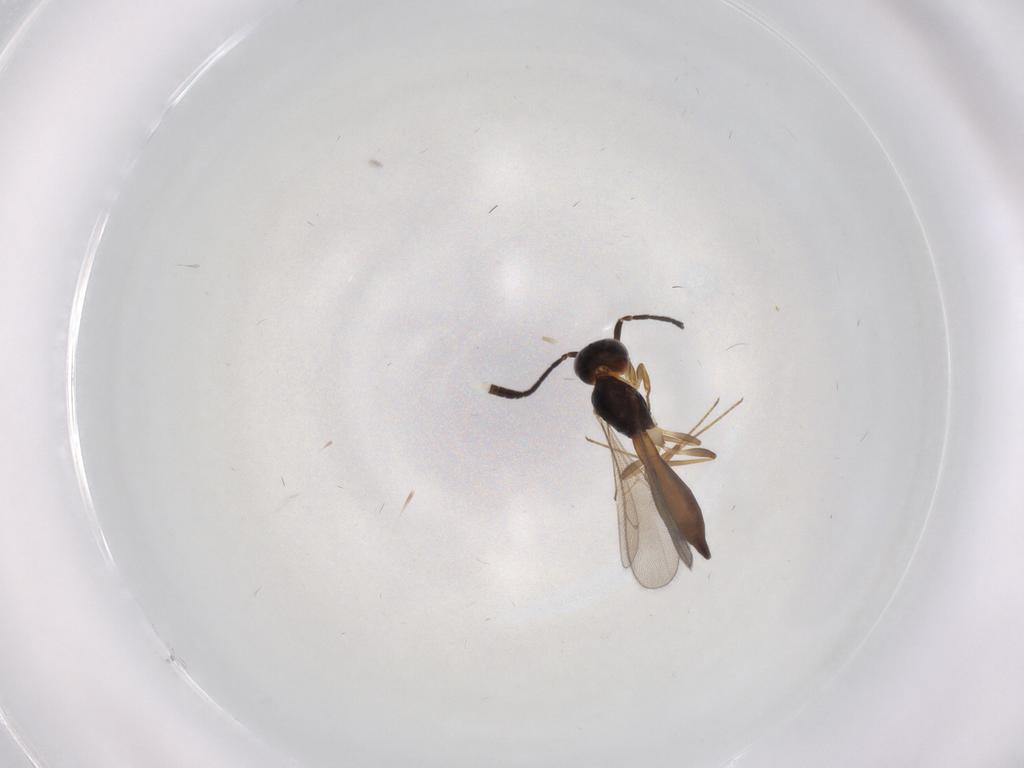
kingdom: Animalia
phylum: Arthropoda
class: Insecta
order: Hymenoptera
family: Scelionidae
